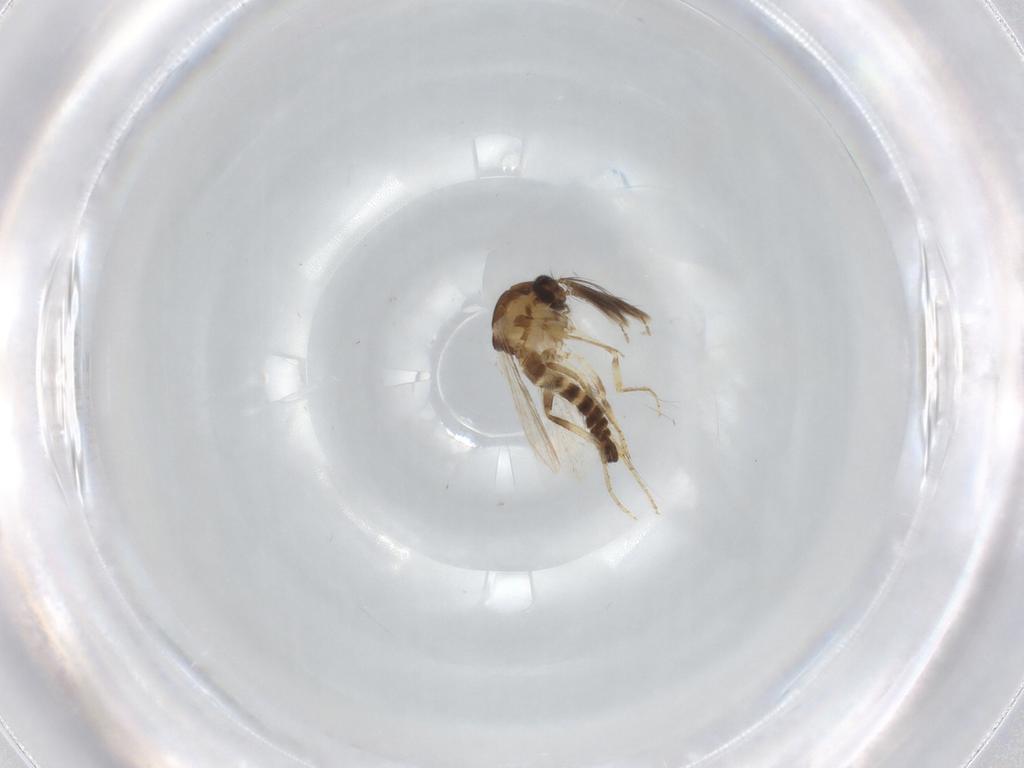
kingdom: Animalia
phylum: Arthropoda
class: Insecta
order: Diptera
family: Ceratopogonidae
